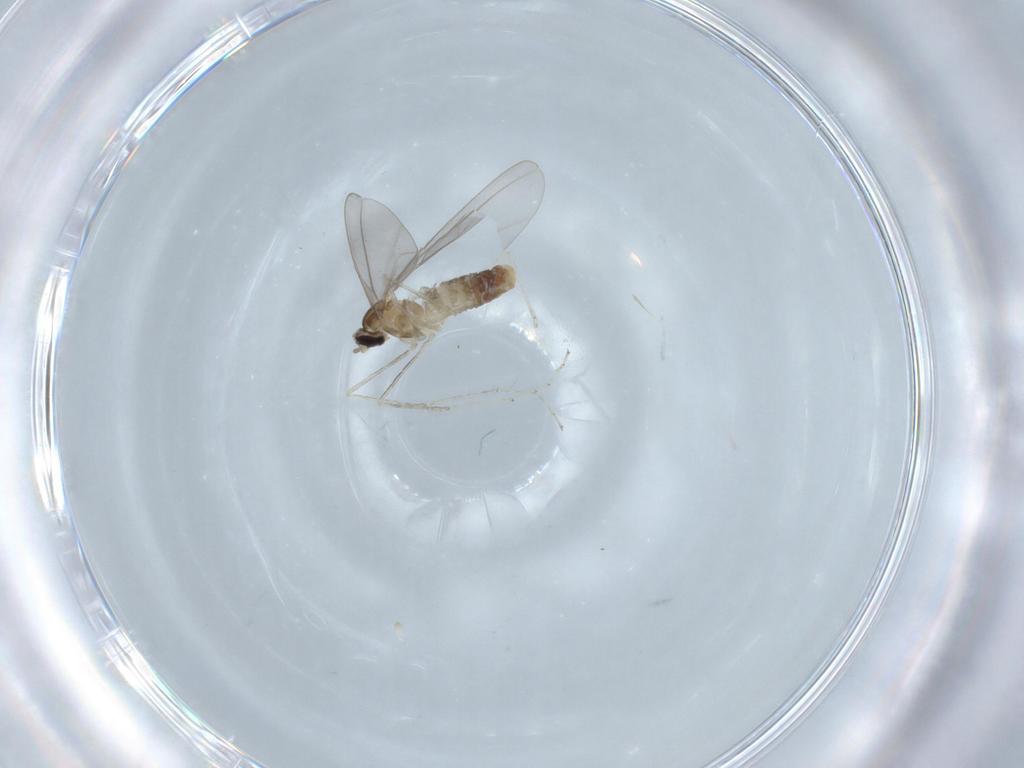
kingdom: Animalia
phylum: Arthropoda
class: Insecta
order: Diptera
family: Cecidomyiidae
